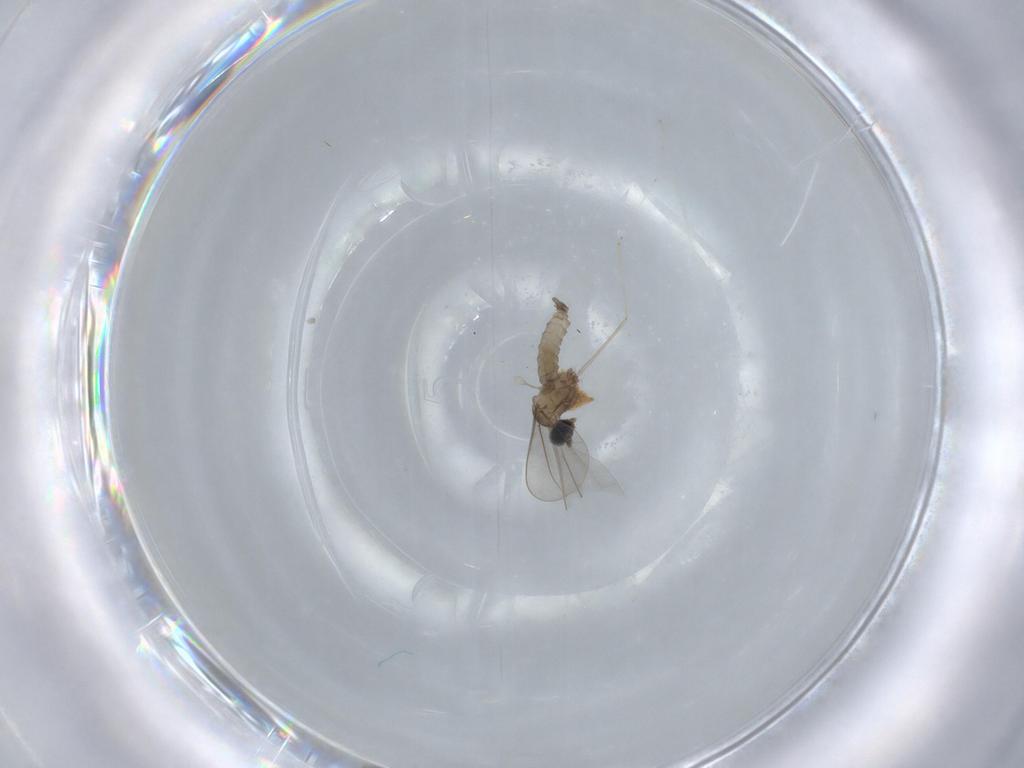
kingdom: Animalia
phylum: Arthropoda
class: Insecta
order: Diptera
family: Cecidomyiidae
